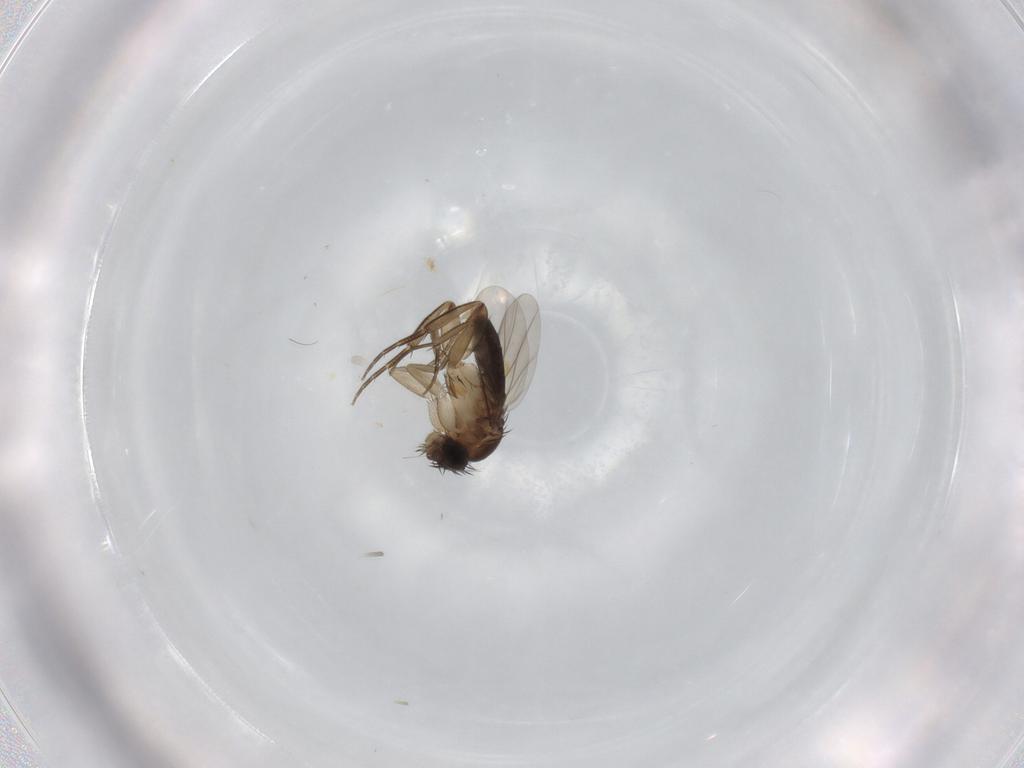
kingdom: Animalia
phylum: Arthropoda
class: Insecta
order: Diptera
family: Phoridae
